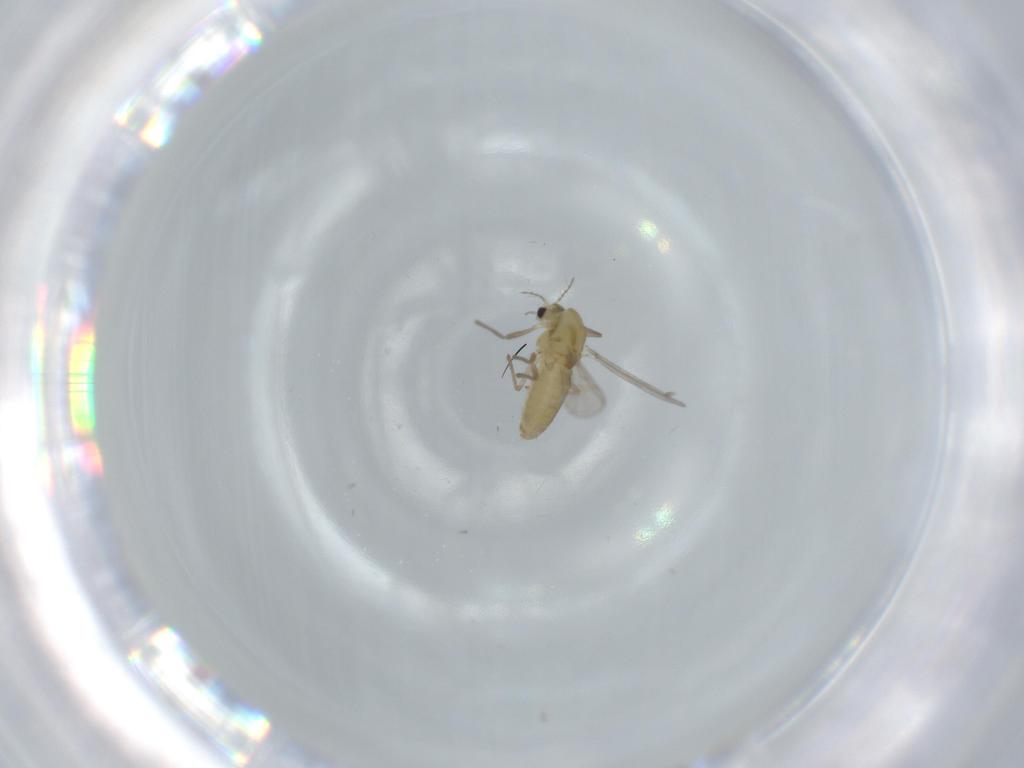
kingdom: Animalia
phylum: Arthropoda
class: Insecta
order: Diptera
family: Chironomidae
